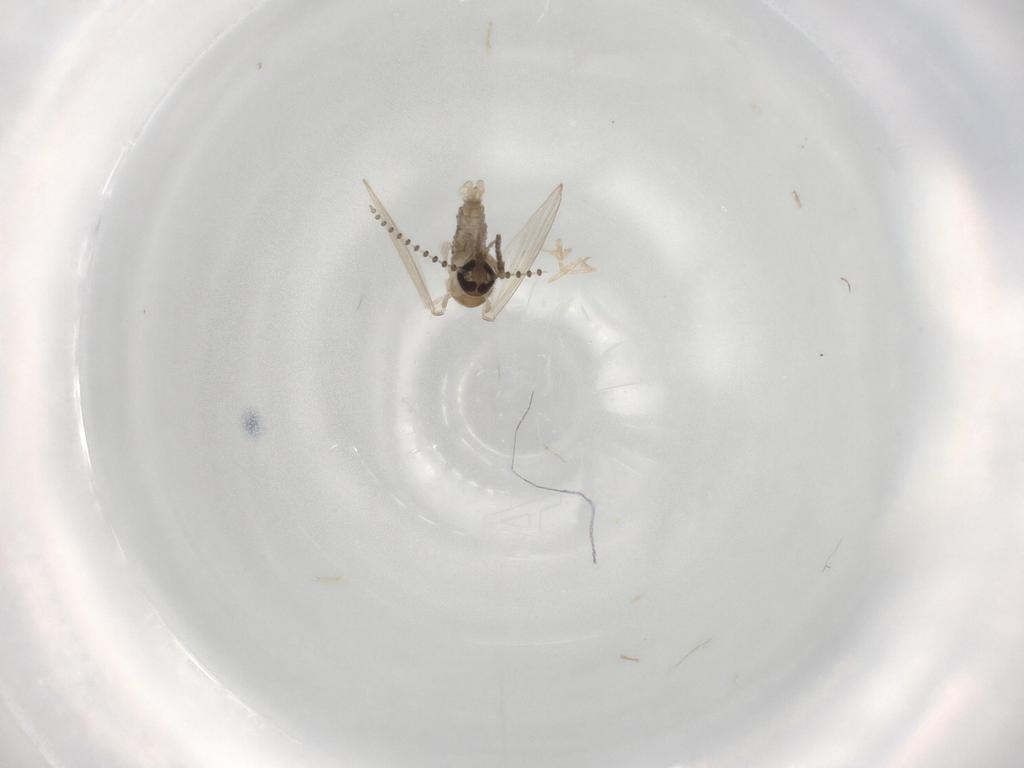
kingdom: Animalia
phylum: Arthropoda
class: Insecta
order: Diptera
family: Psychodidae
